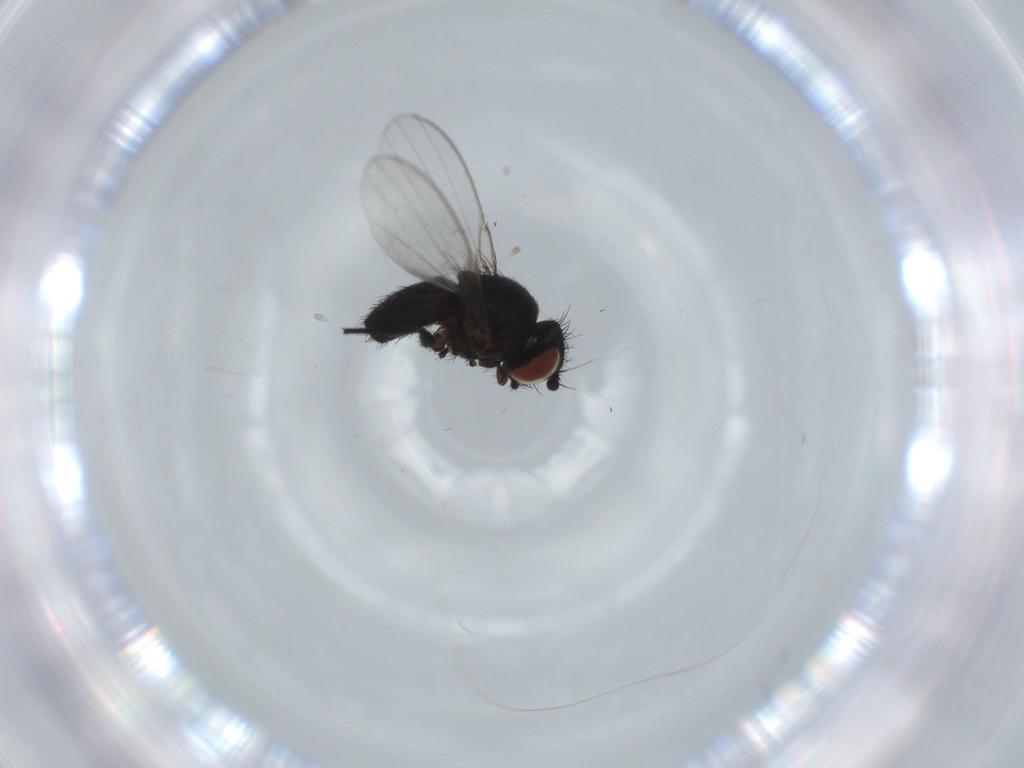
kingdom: Animalia
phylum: Arthropoda
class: Insecta
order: Diptera
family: Milichiidae
